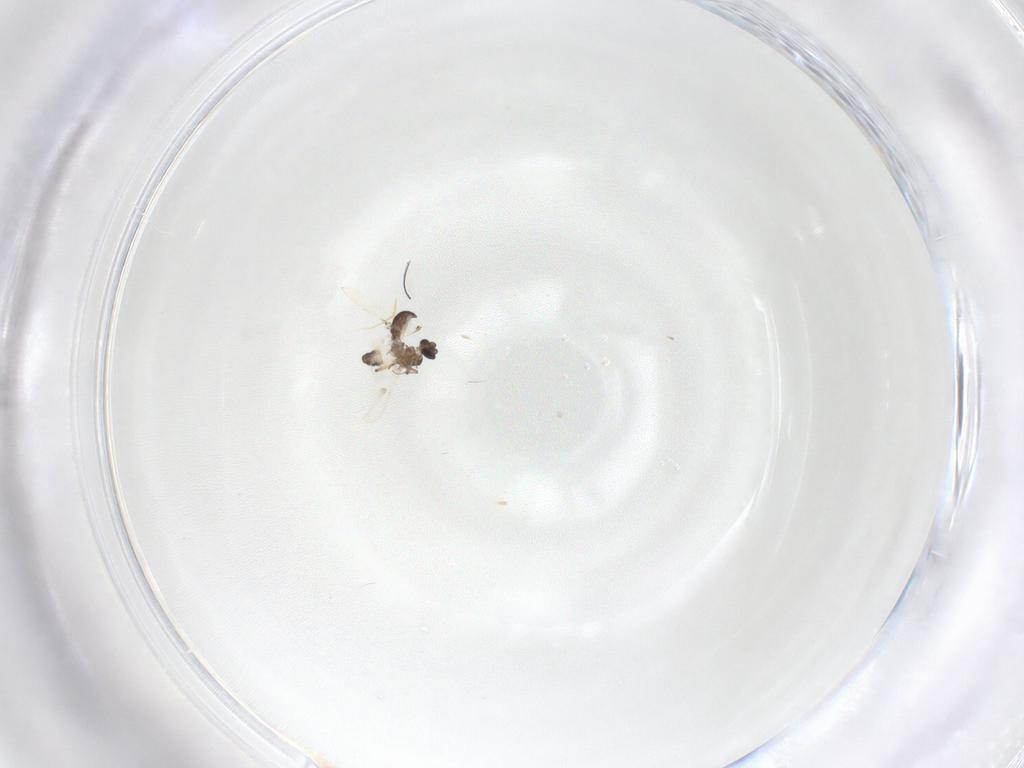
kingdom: Animalia
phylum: Arthropoda
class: Insecta
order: Diptera
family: Ceratopogonidae
